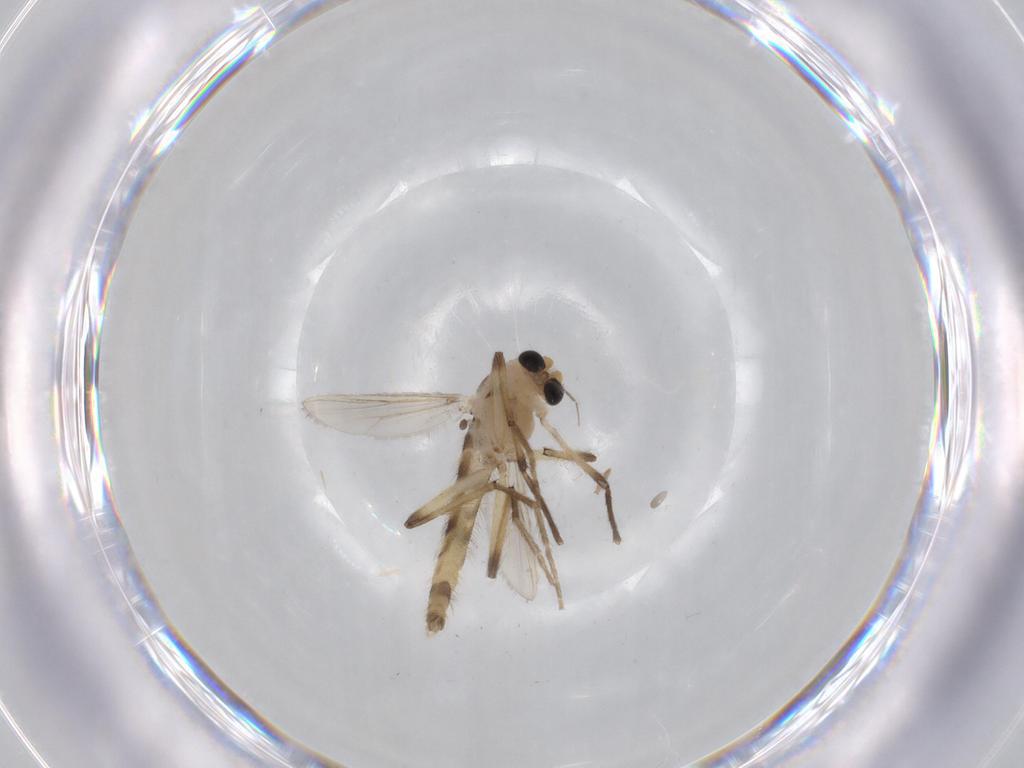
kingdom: Animalia
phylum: Arthropoda
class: Insecta
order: Diptera
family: Chironomidae
